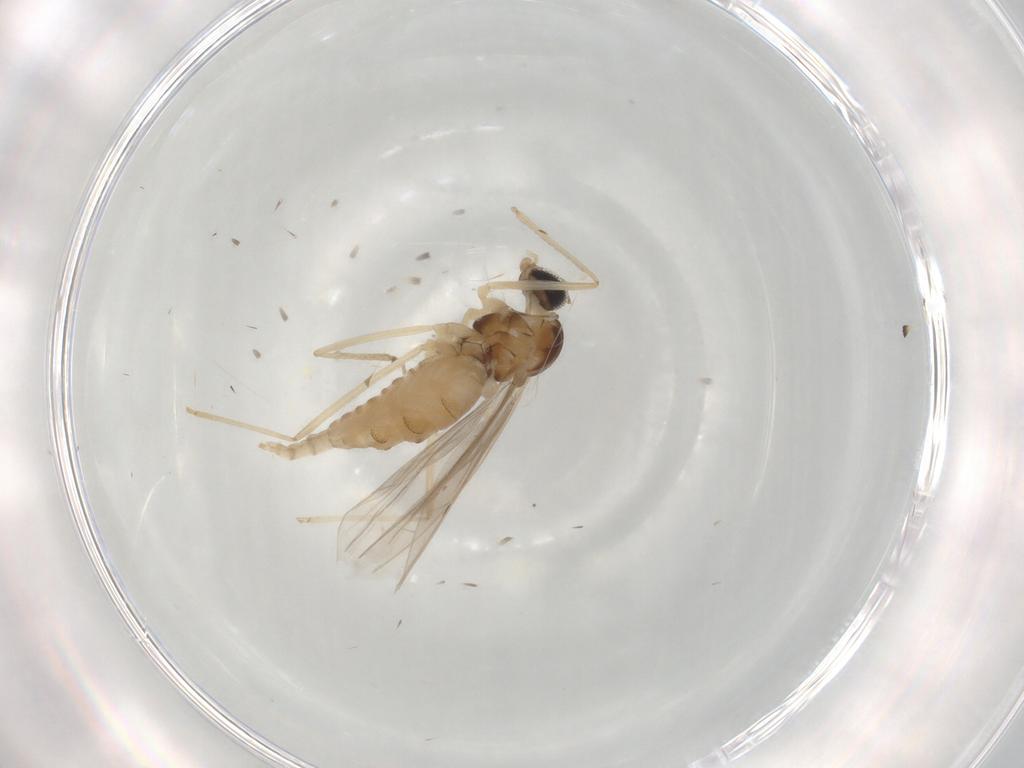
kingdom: Animalia
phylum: Arthropoda
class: Insecta
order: Diptera
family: Cecidomyiidae
